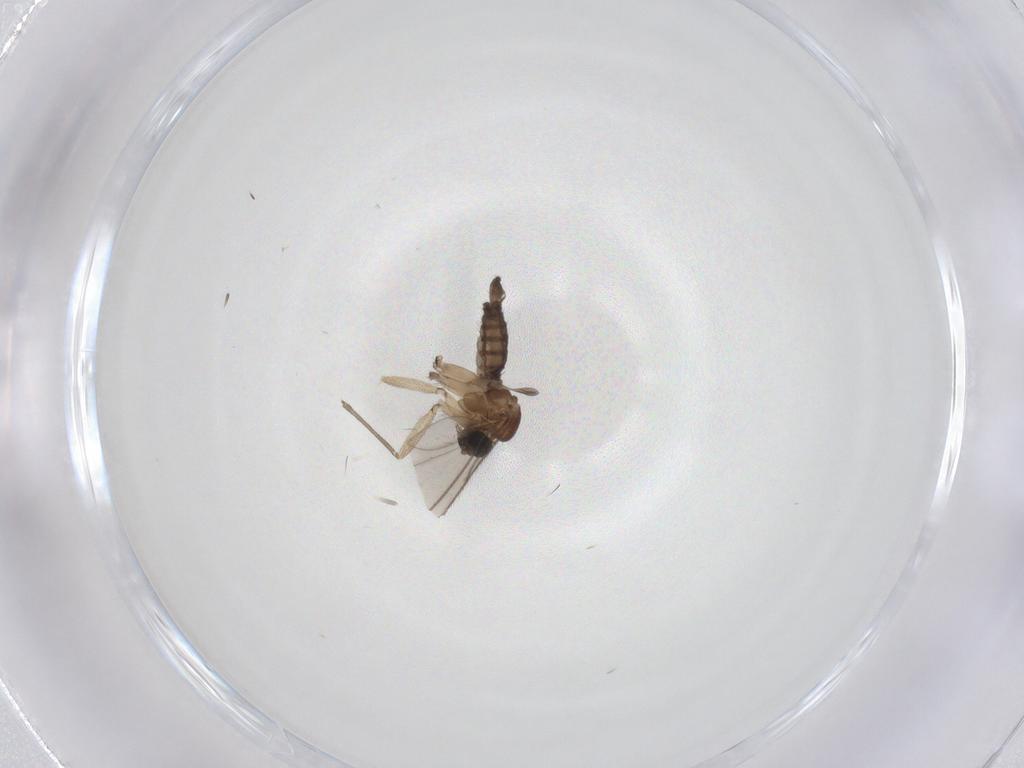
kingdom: Animalia
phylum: Arthropoda
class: Insecta
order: Diptera
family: Sciaridae
